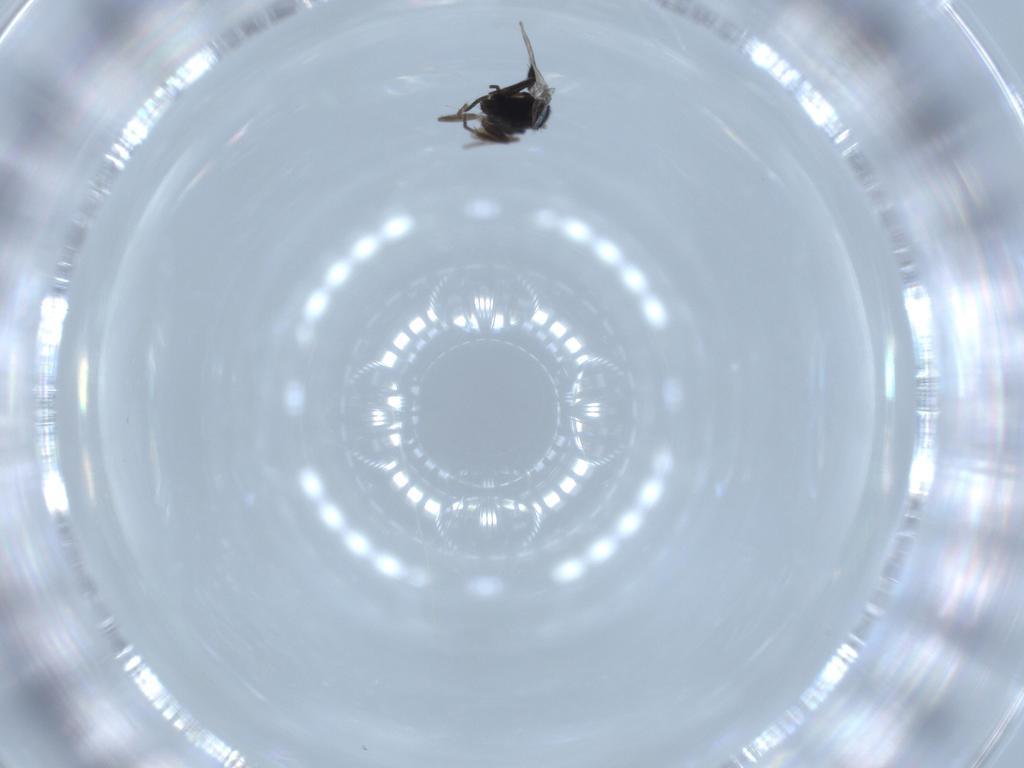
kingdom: Animalia
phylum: Arthropoda
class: Insecta
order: Diptera
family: Phoridae
